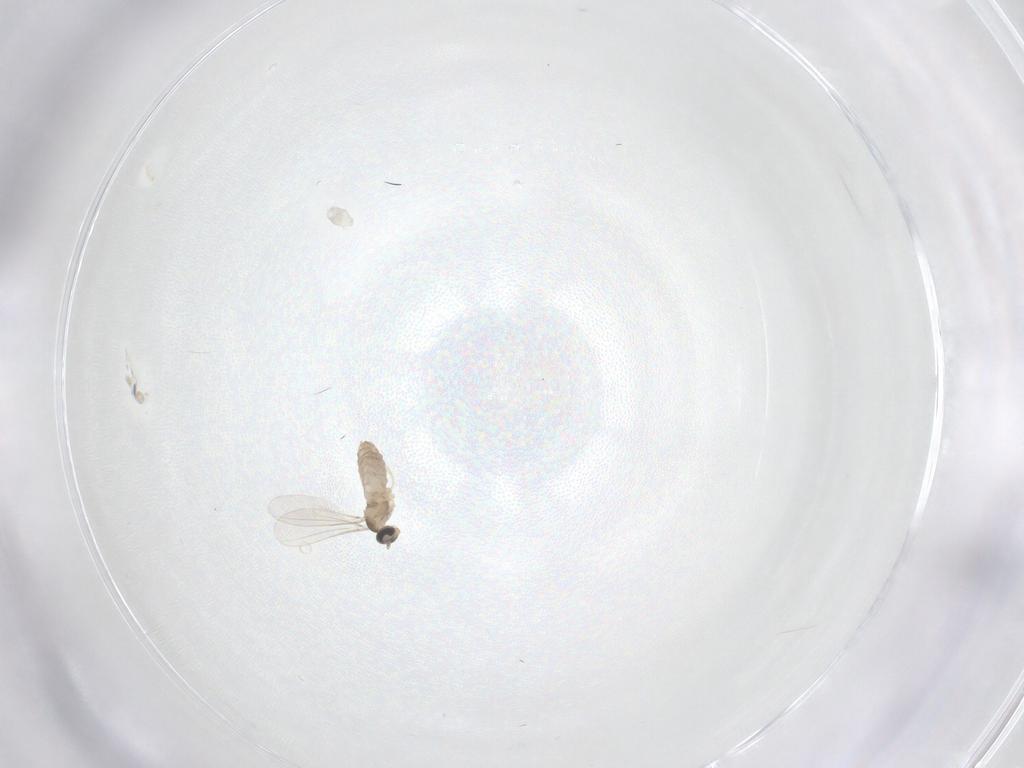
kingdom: Animalia
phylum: Arthropoda
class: Insecta
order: Diptera
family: Cecidomyiidae
